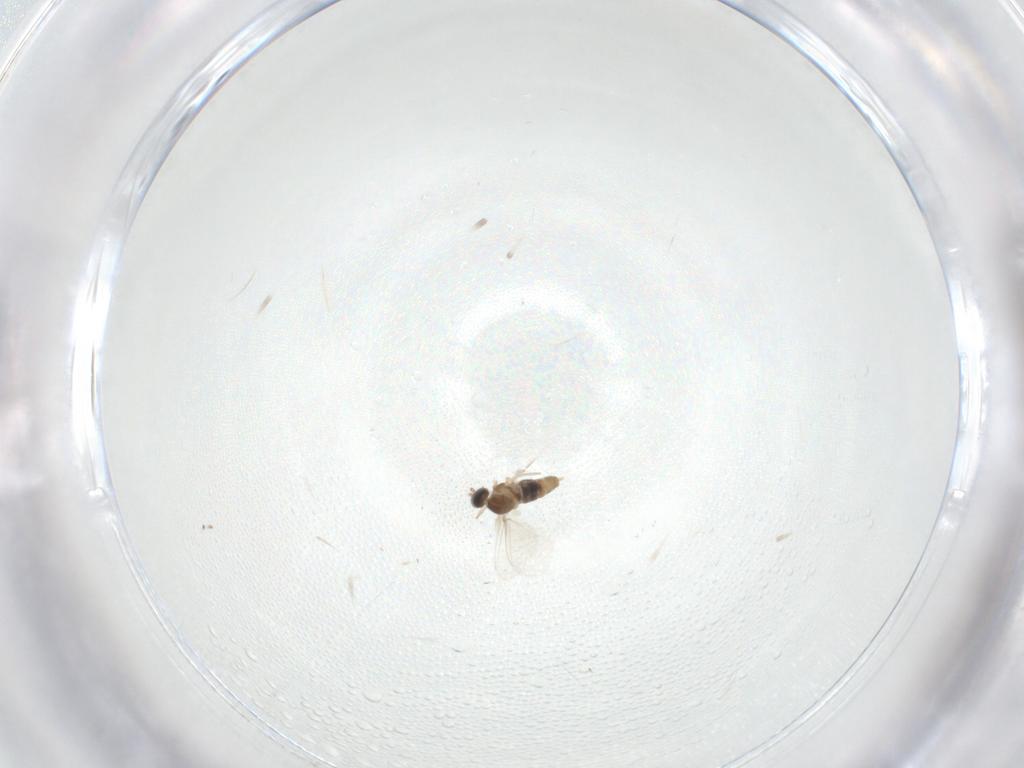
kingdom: Animalia
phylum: Arthropoda
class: Insecta
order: Diptera
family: Cecidomyiidae
